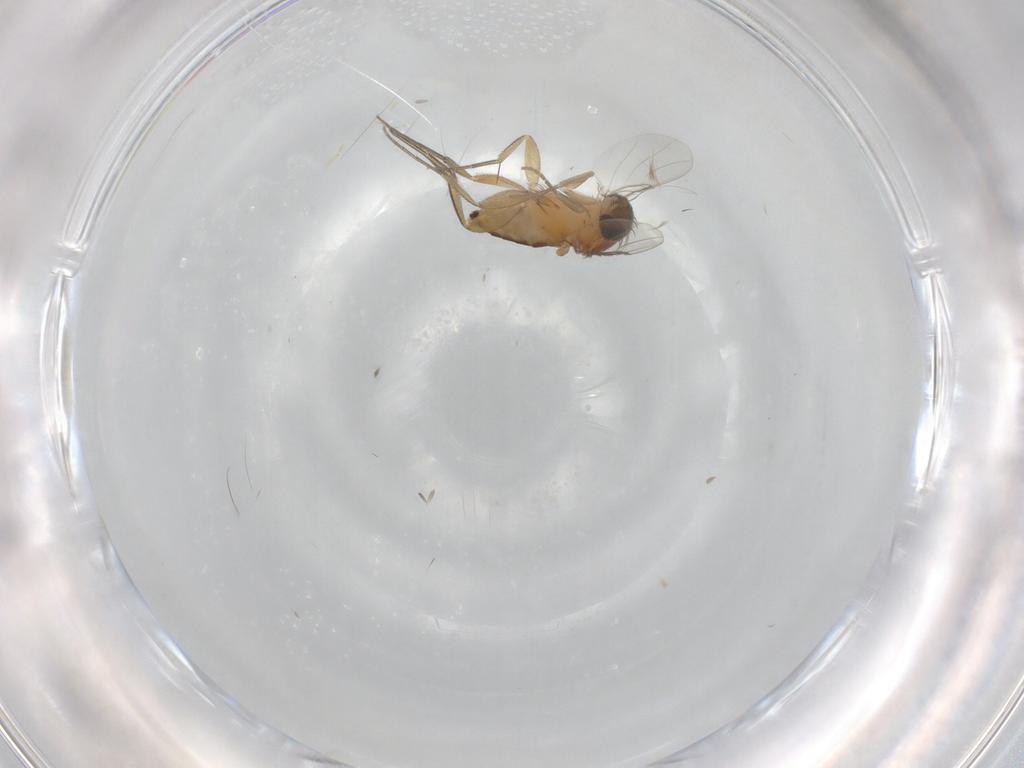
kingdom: Animalia
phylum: Arthropoda
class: Insecta
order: Diptera
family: Phoridae
